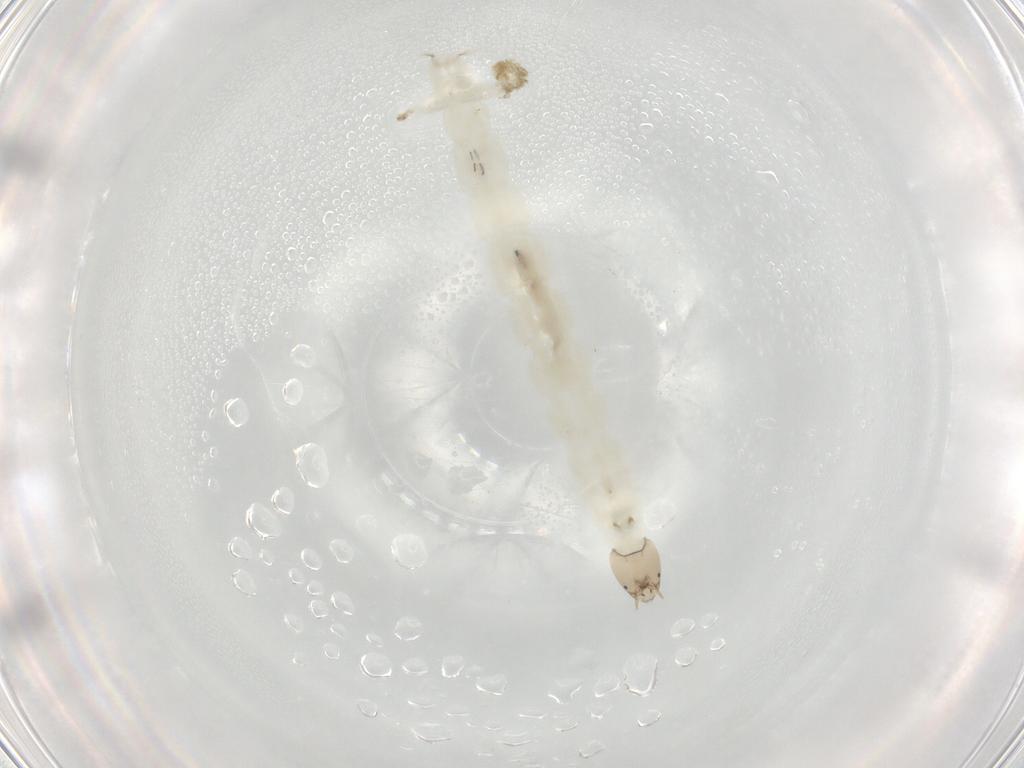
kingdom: Animalia
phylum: Arthropoda
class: Insecta
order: Diptera
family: Chironomidae
